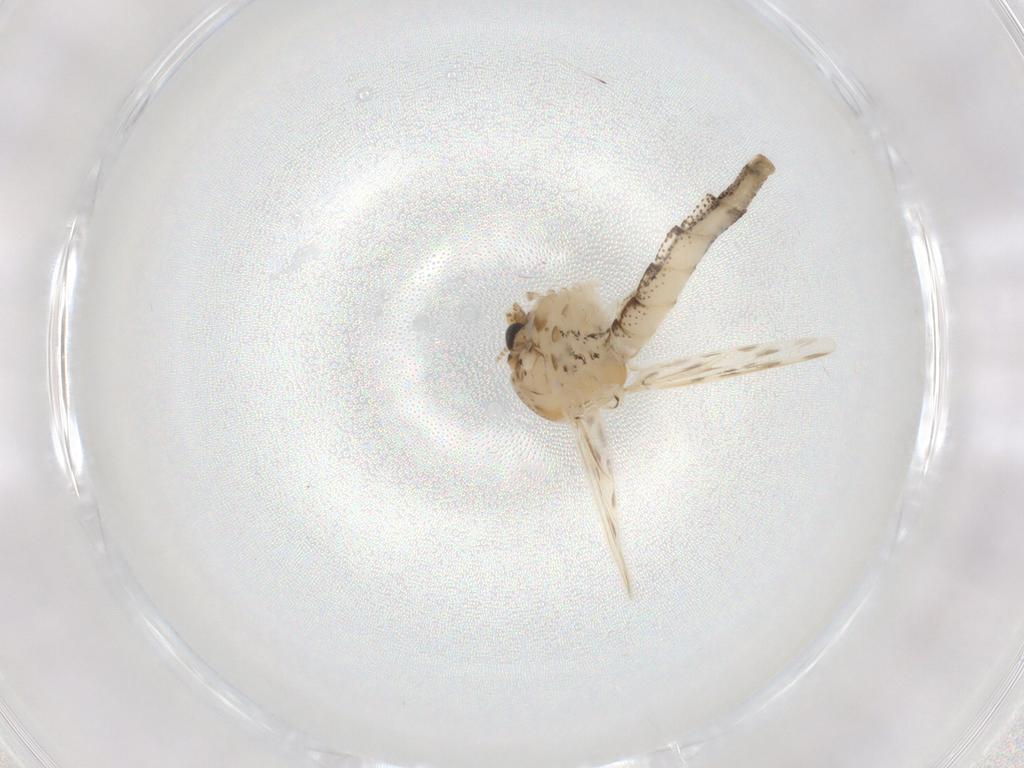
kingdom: Animalia
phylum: Arthropoda
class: Insecta
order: Diptera
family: Chaoboridae
